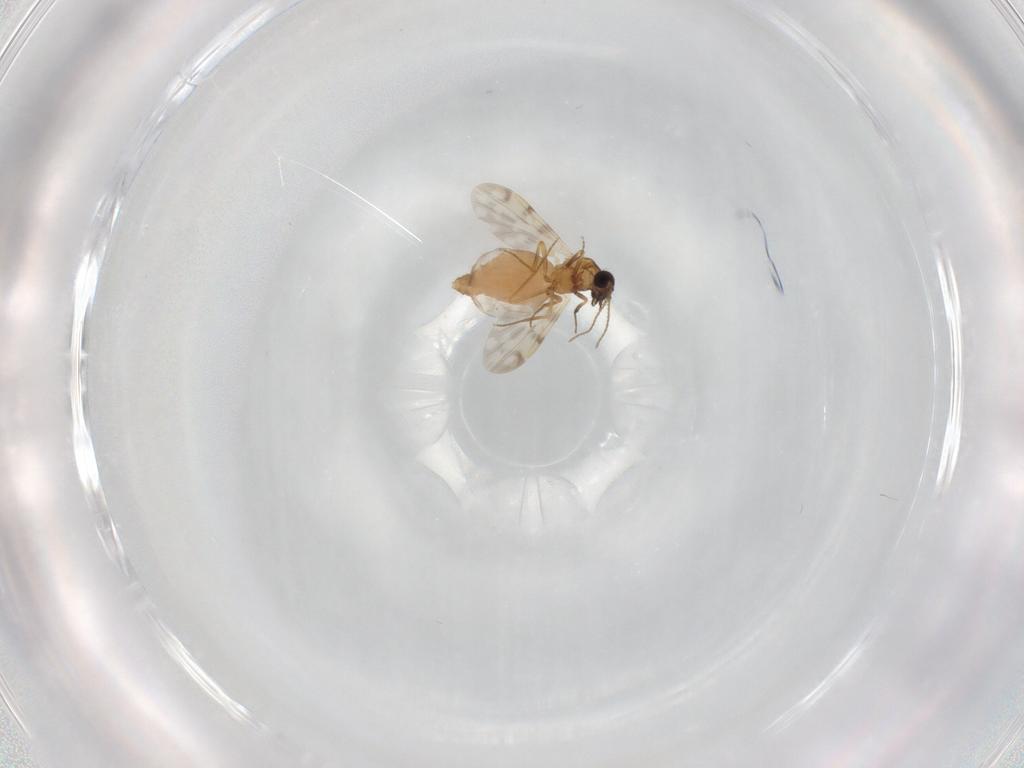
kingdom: Animalia
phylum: Arthropoda
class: Insecta
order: Diptera
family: Ceratopogonidae
